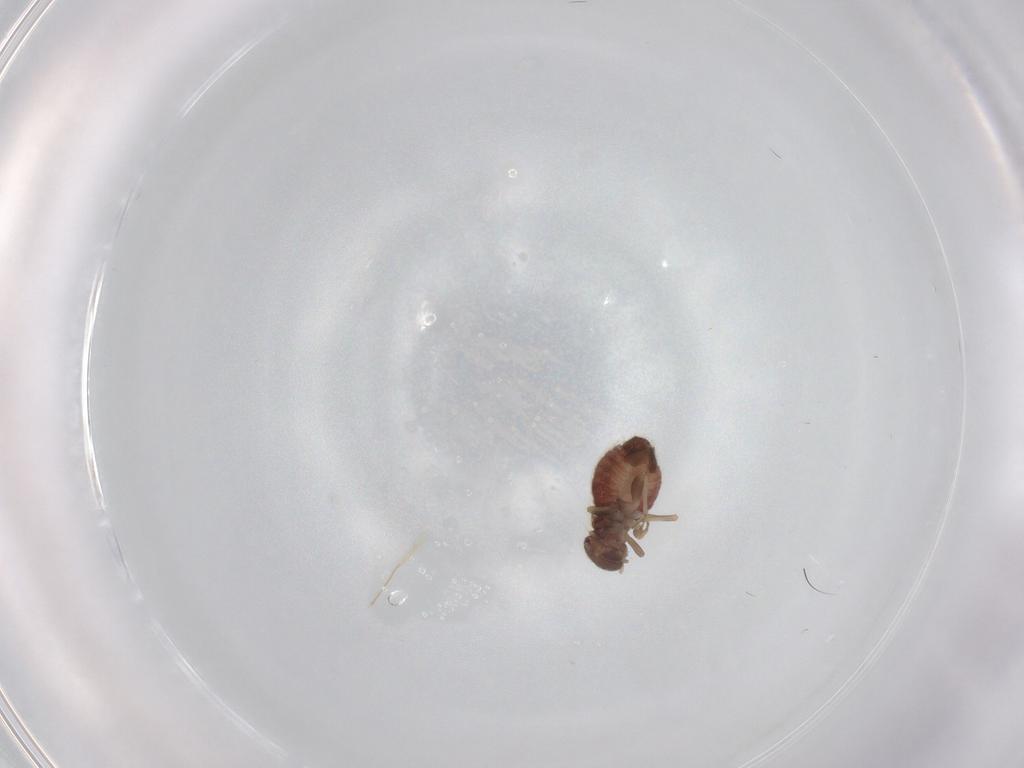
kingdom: Animalia
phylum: Arthropoda
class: Insecta
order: Psocodea
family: Archipsocidae
